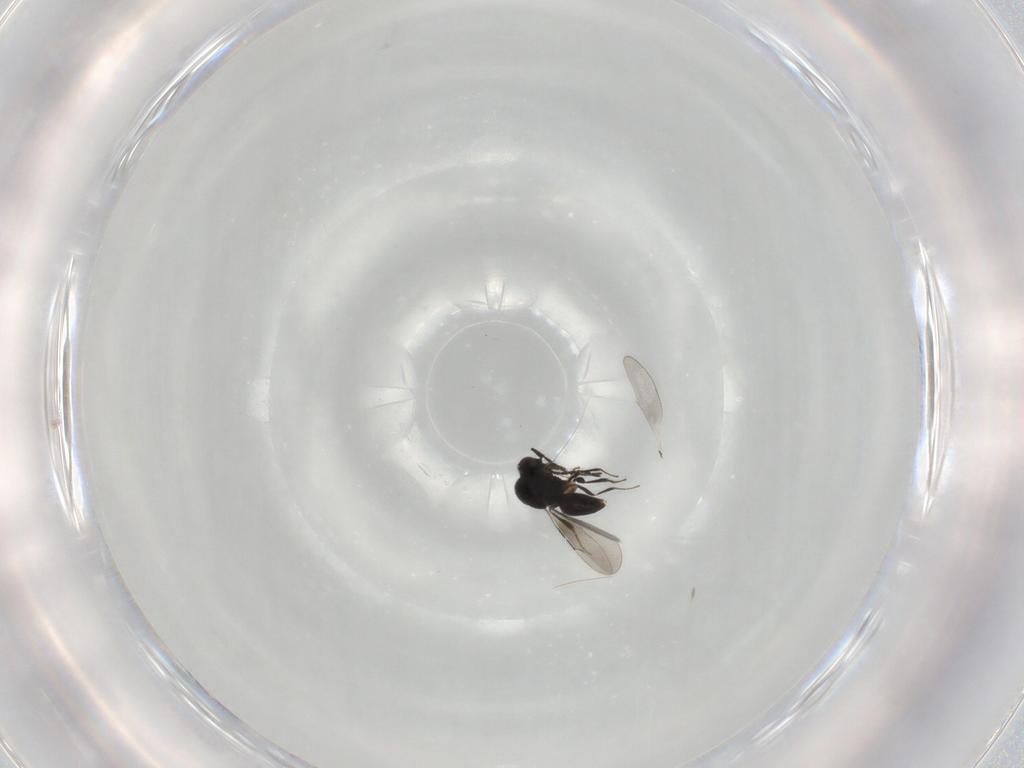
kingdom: Animalia
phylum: Arthropoda
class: Insecta
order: Hymenoptera
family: Ceraphronidae
